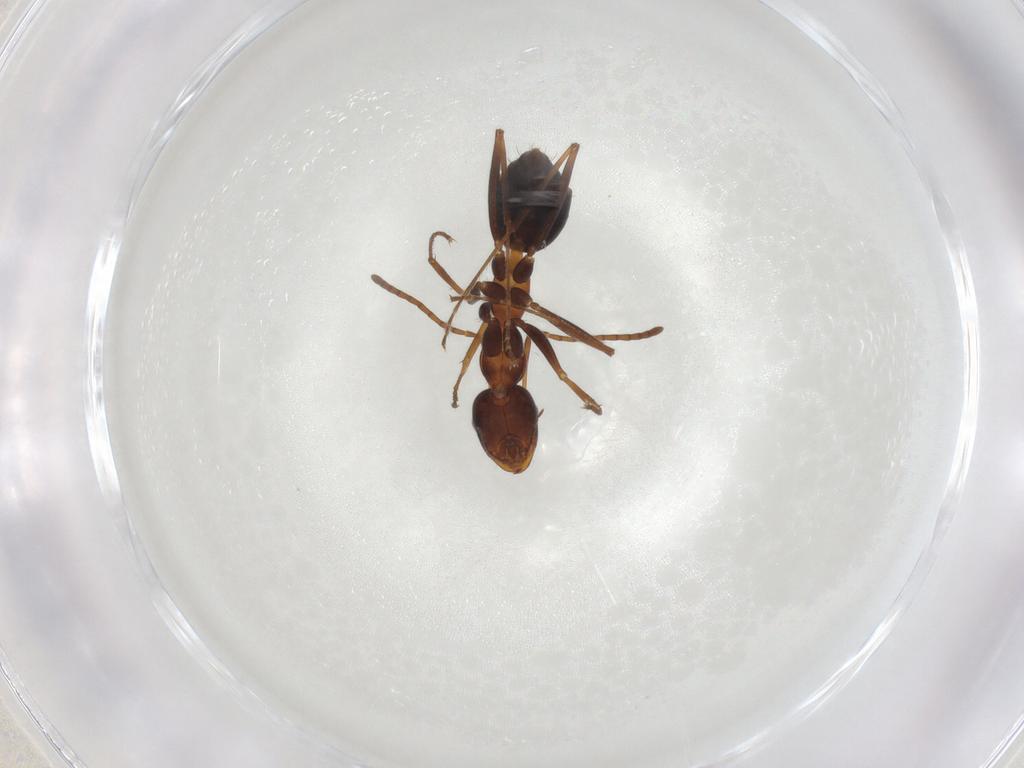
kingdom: Animalia
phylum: Arthropoda
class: Insecta
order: Hymenoptera
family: Formicidae
